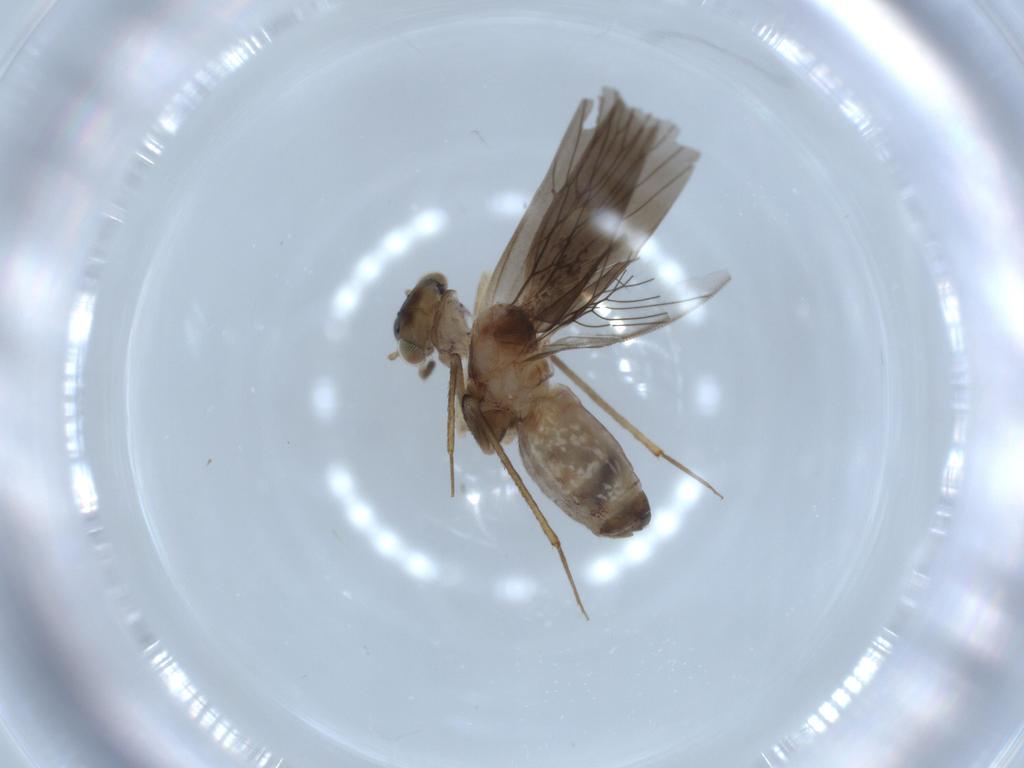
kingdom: Animalia
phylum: Arthropoda
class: Insecta
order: Psocodea
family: Lepidopsocidae
